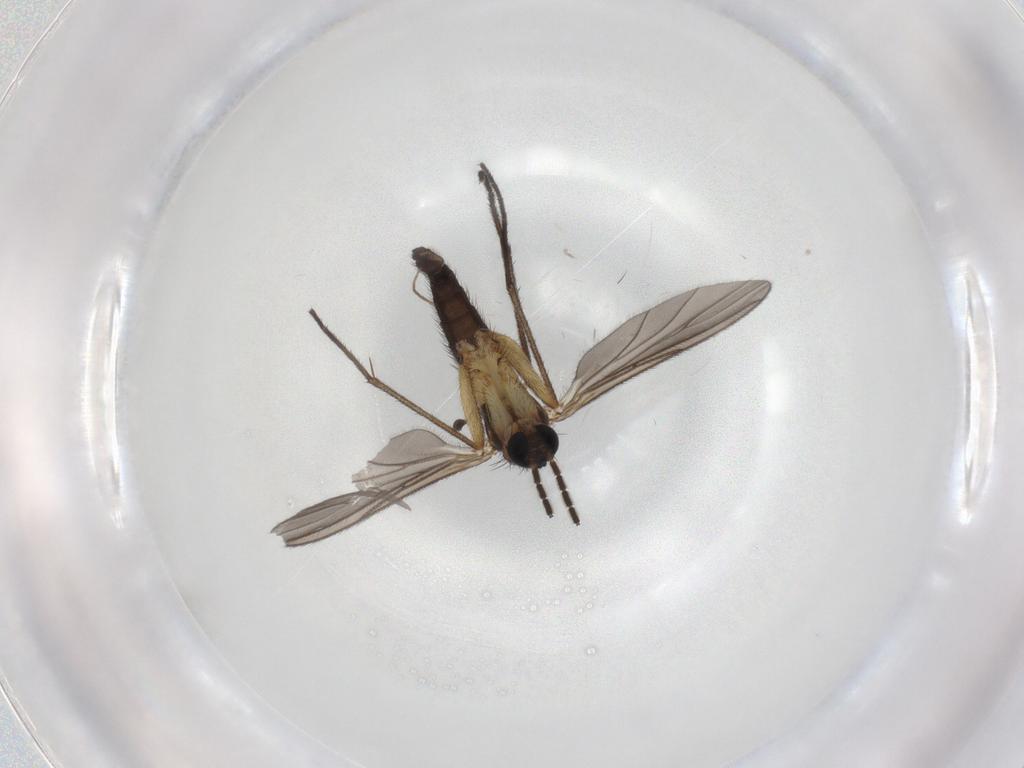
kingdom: Animalia
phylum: Arthropoda
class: Insecta
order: Diptera
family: Sciaridae
